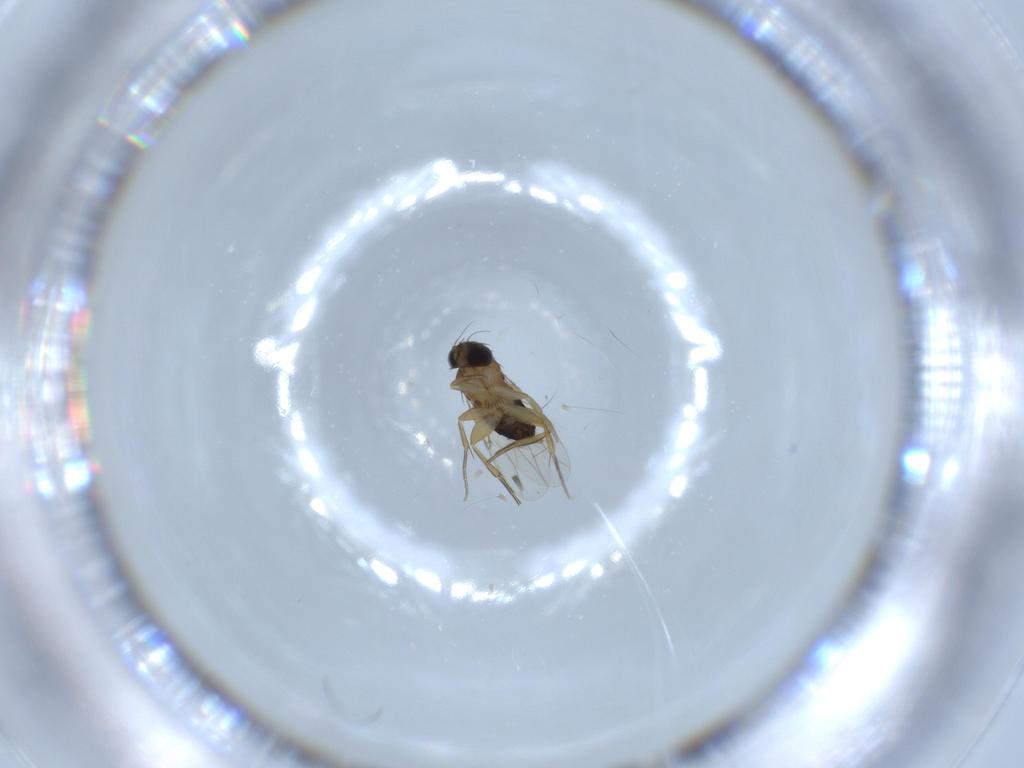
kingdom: Animalia
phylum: Arthropoda
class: Insecta
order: Diptera
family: Phoridae
